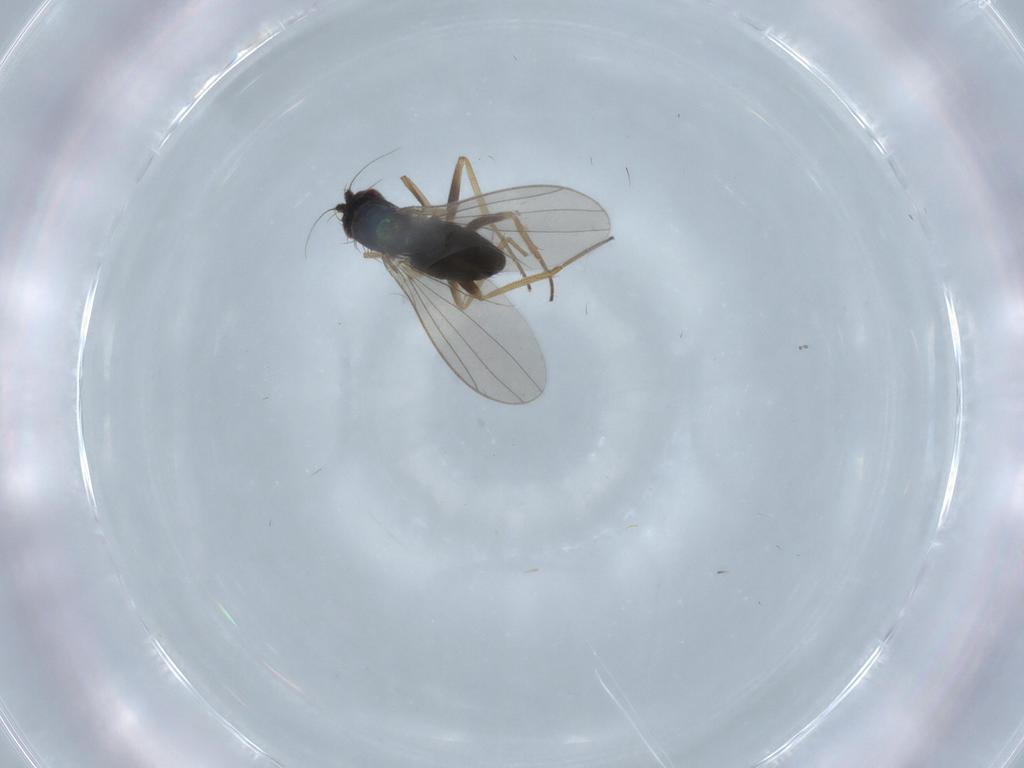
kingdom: Animalia
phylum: Arthropoda
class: Insecta
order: Diptera
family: Dolichopodidae
